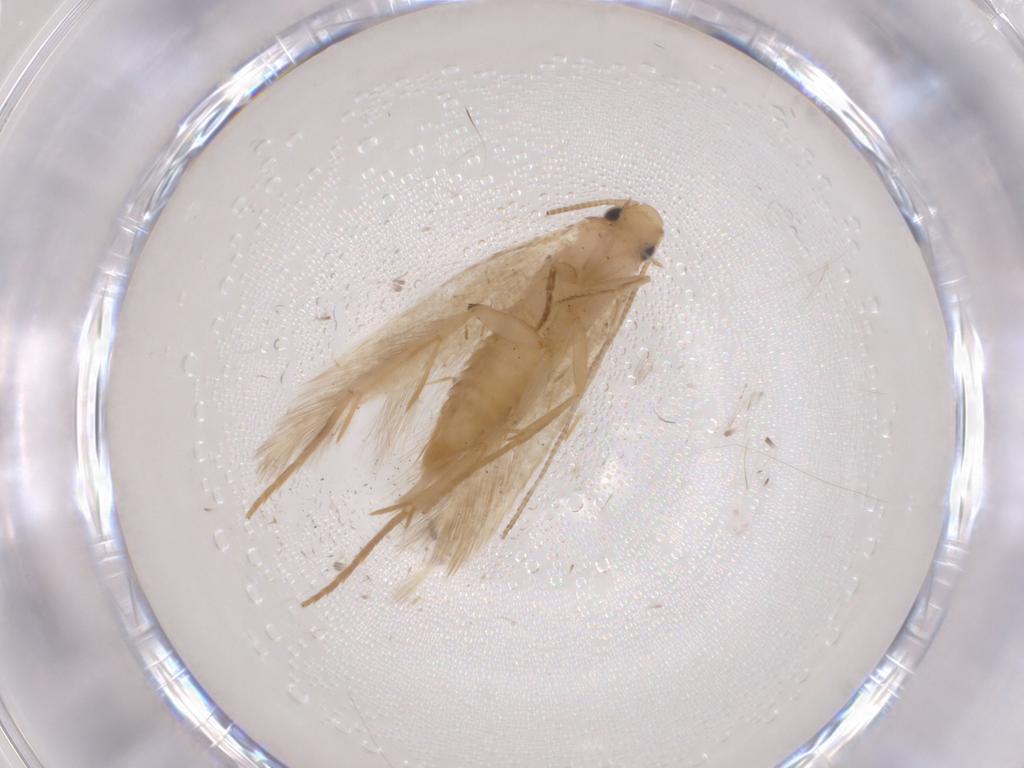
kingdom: Animalia
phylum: Arthropoda
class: Insecta
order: Lepidoptera
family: Tineidae
